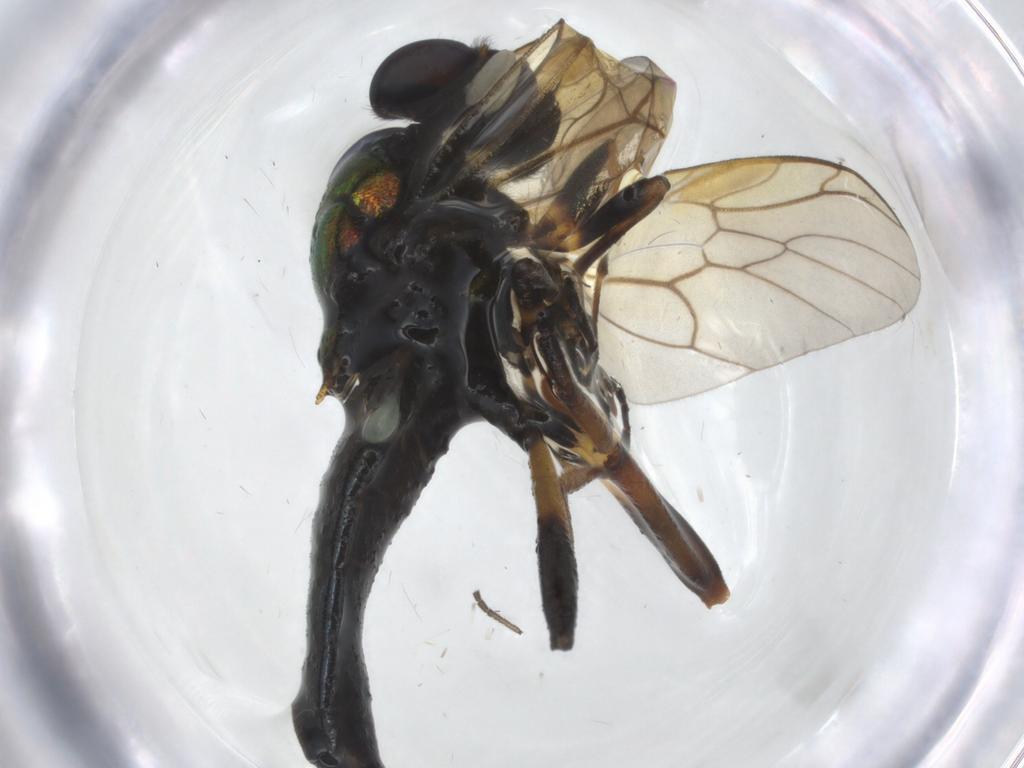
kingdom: Animalia
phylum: Arthropoda
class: Insecta
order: Diptera
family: Stratiomyidae
